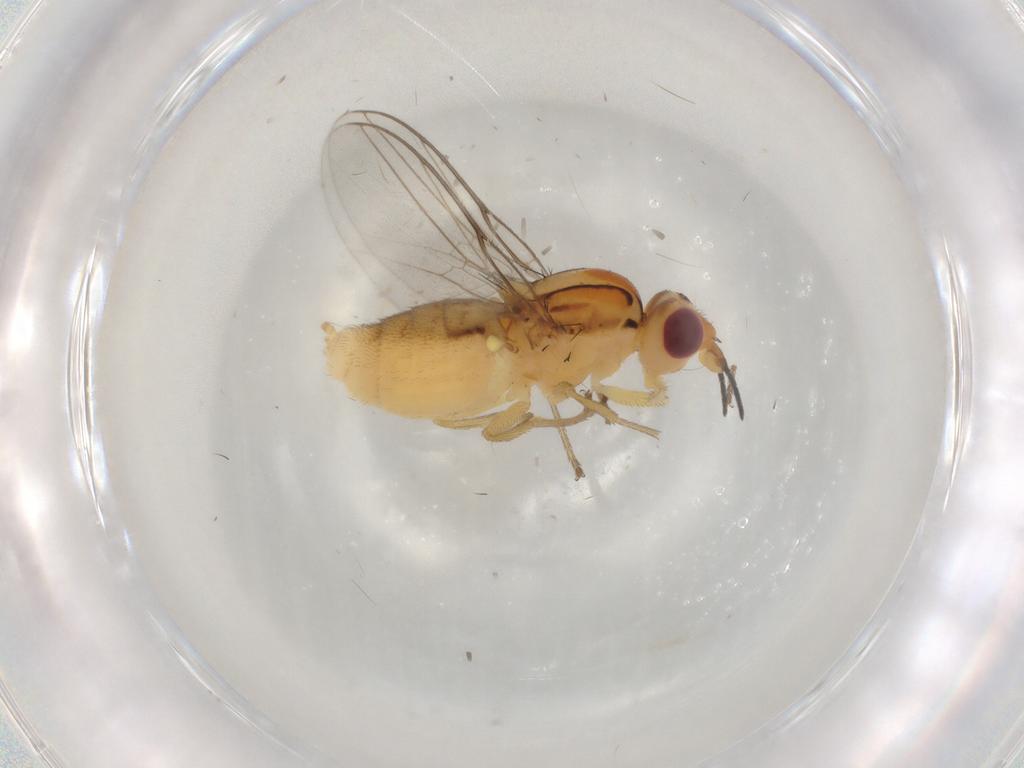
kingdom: Animalia
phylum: Arthropoda
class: Insecta
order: Diptera
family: Chloropidae
